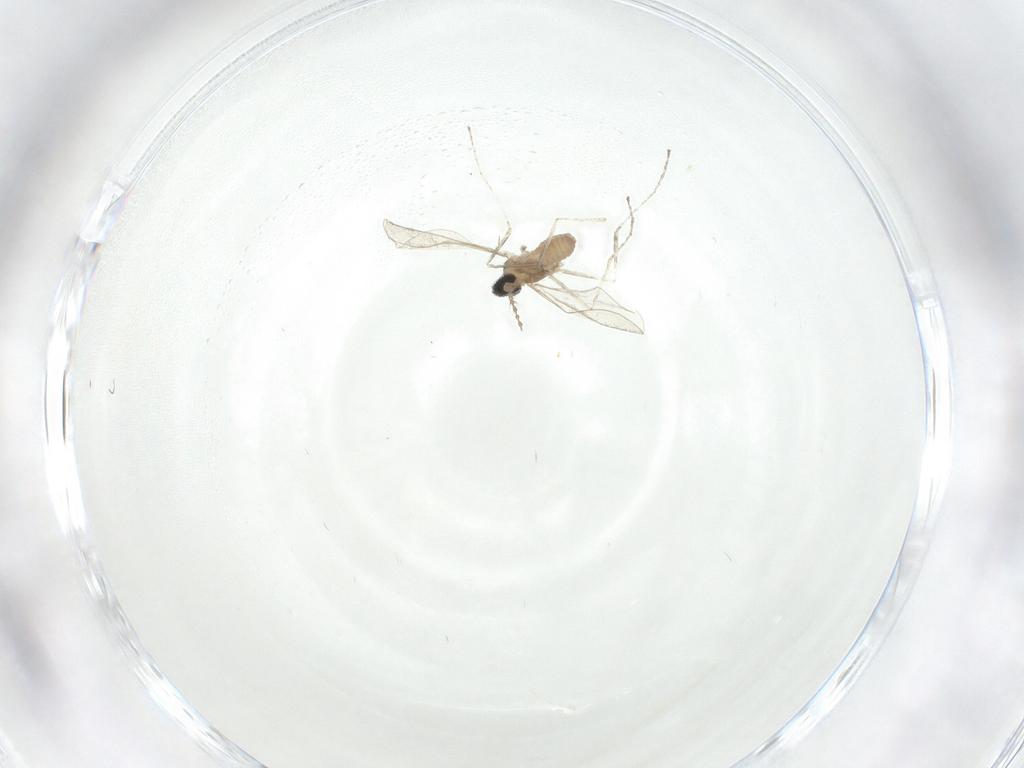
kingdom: Animalia
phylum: Arthropoda
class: Insecta
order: Diptera
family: Cecidomyiidae
